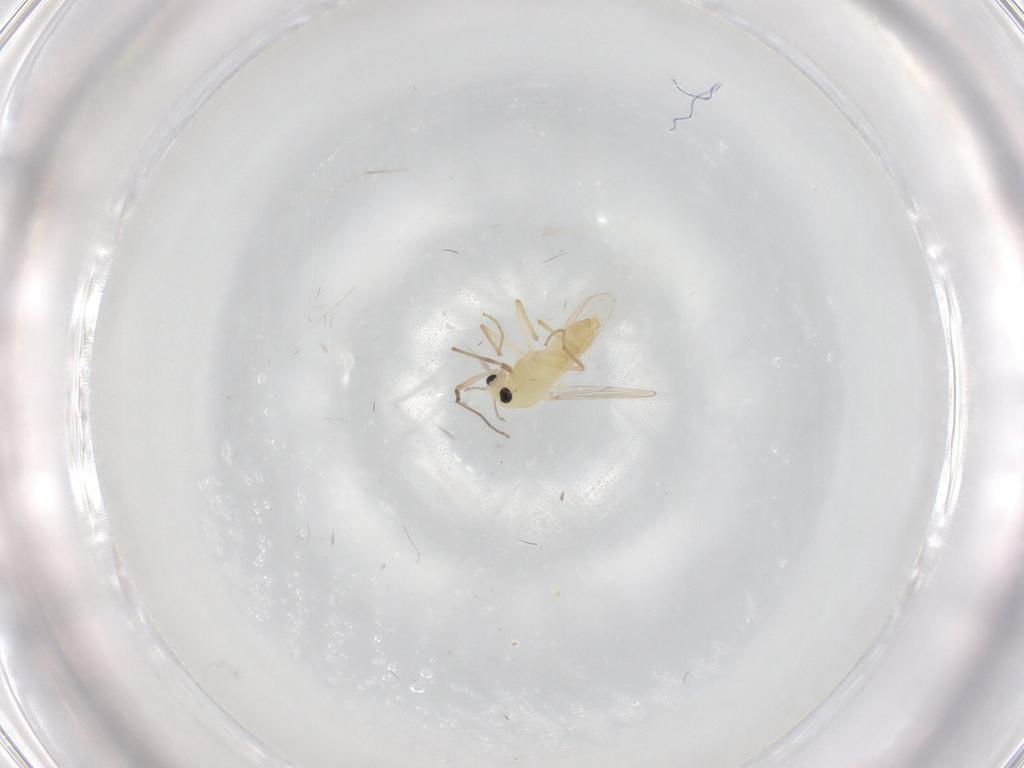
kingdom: Animalia
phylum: Arthropoda
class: Insecta
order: Diptera
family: Chironomidae
